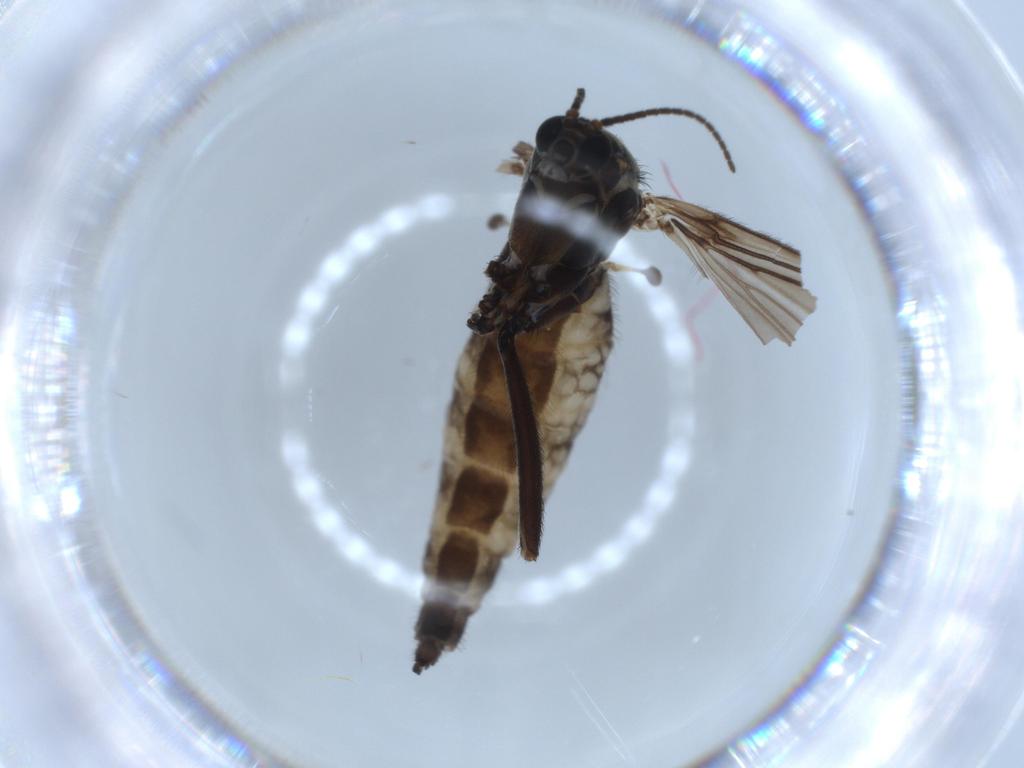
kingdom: Animalia
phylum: Arthropoda
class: Insecta
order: Diptera
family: Sciaridae
